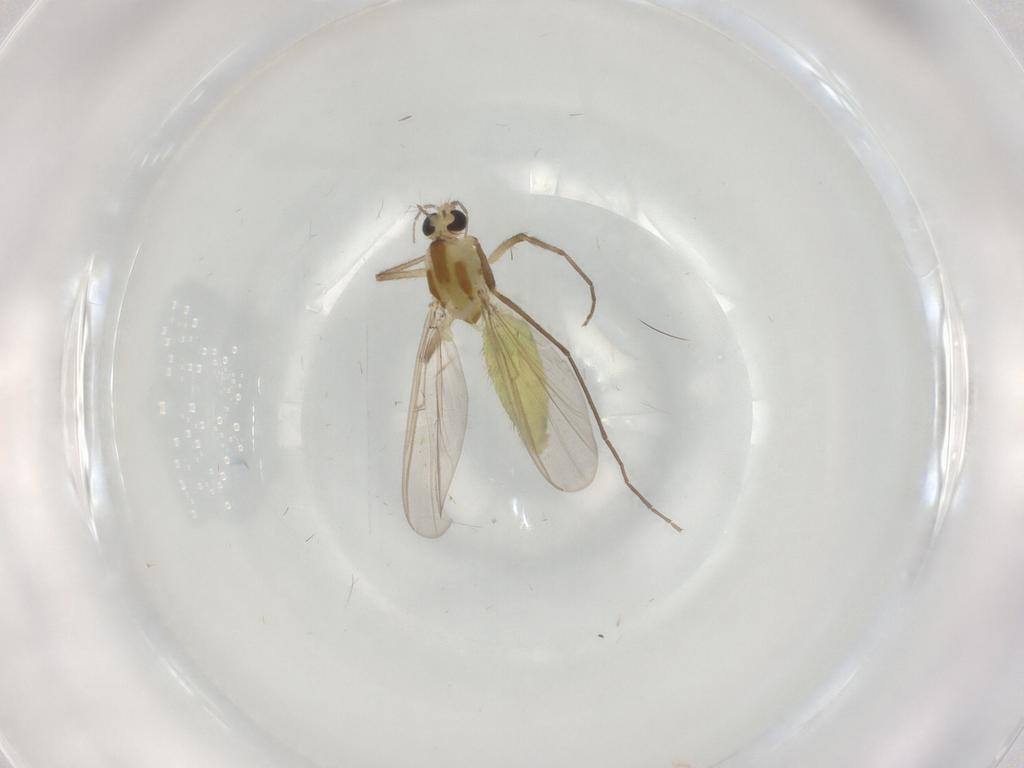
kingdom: Animalia
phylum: Arthropoda
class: Insecta
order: Diptera
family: Chironomidae
